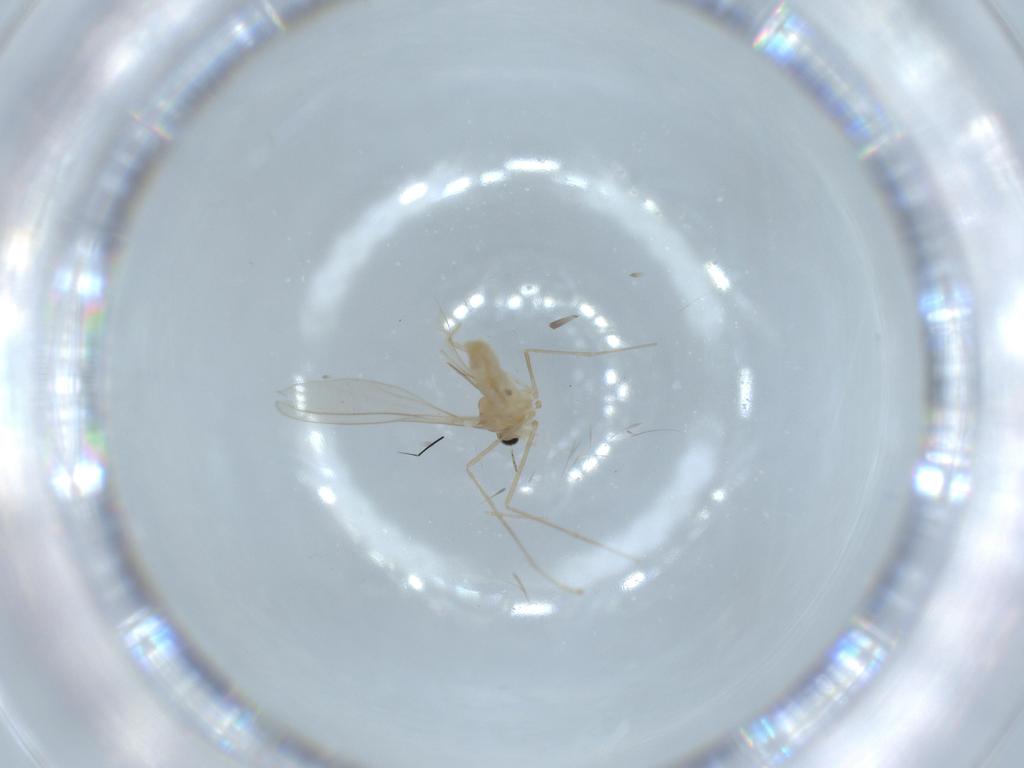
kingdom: Animalia
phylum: Arthropoda
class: Insecta
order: Diptera
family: Cecidomyiidae
